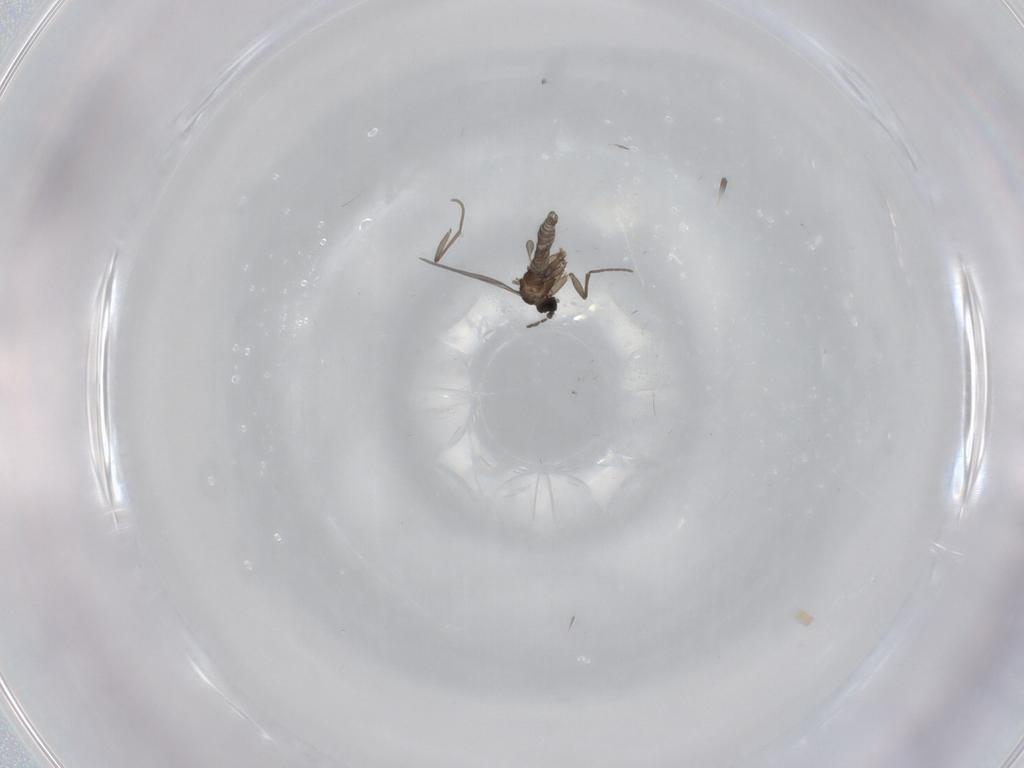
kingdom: Animalia
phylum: Arthropoda
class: Insecta
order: Diptera
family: Sciaridae
